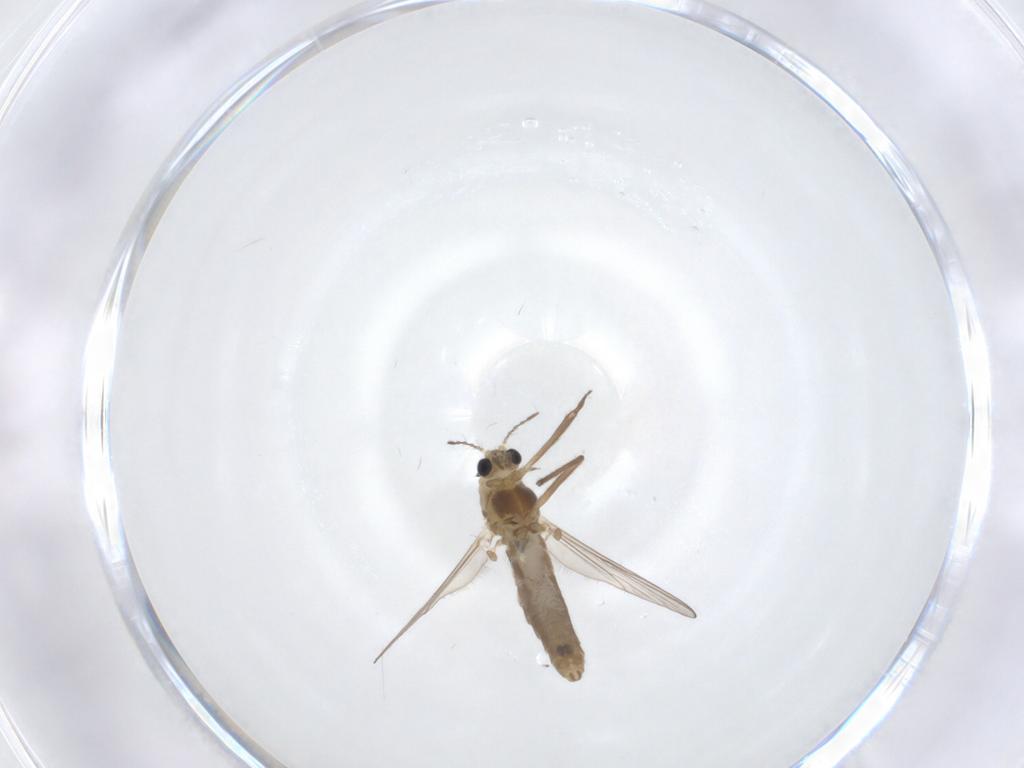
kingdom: Animalia
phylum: Arthropoda
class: Insecta
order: Diptera
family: Chironomidae
